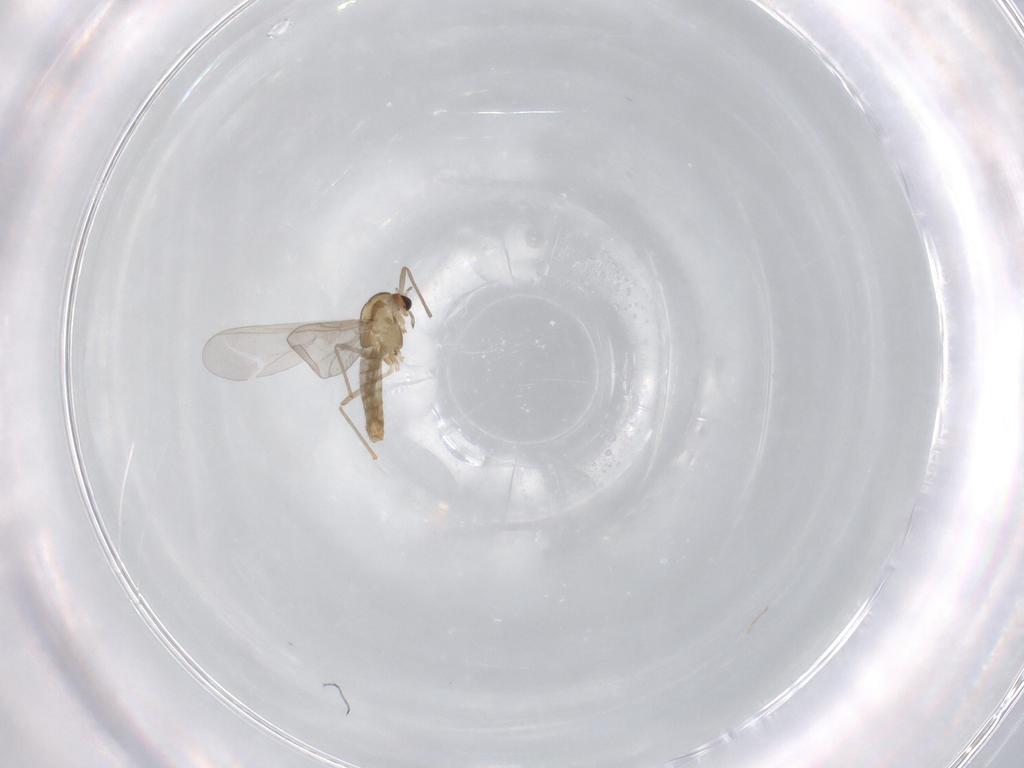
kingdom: Animalia
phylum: Arthropoda
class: Insecta
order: Diptera
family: Chironomidae
